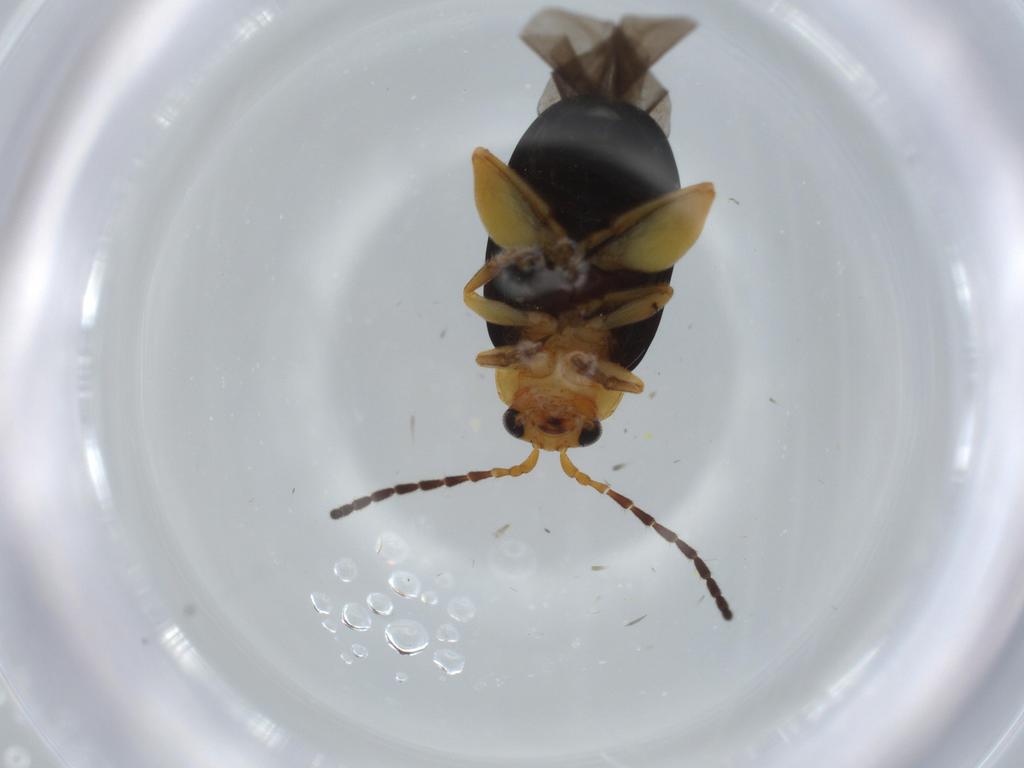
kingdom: Animalia
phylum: Arthropoda
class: Insecta
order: Coleoptera
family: Chrysomelidae
